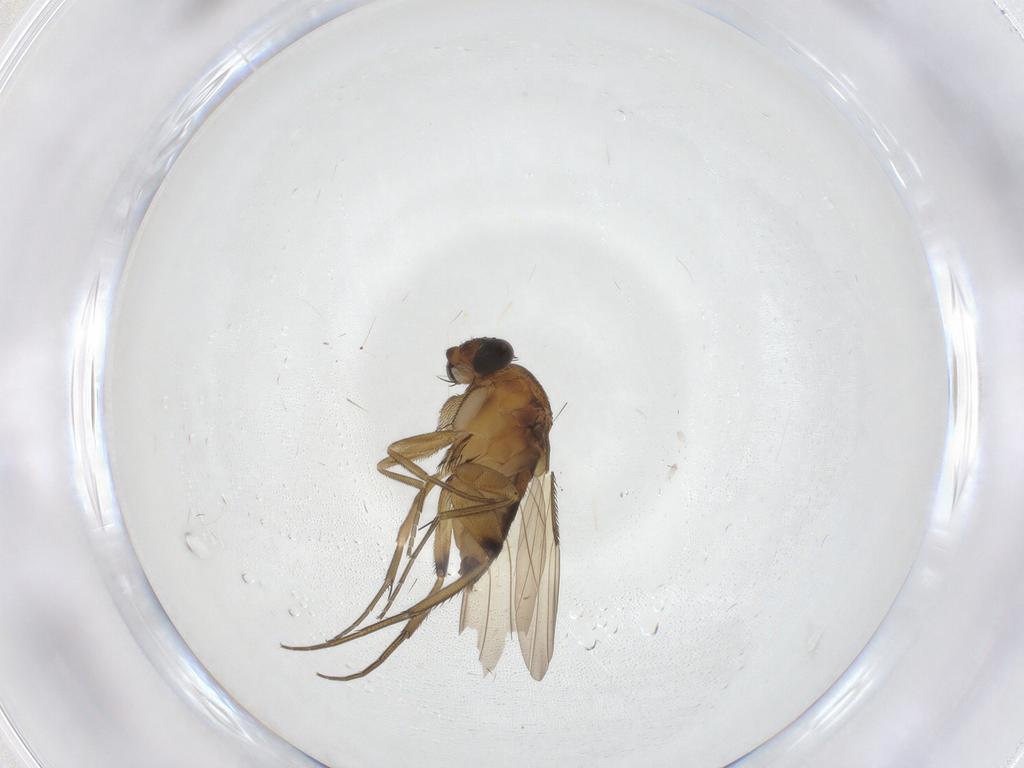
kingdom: Animalia
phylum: Arthropoda
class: Insecta
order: Diptera
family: Phoridae
